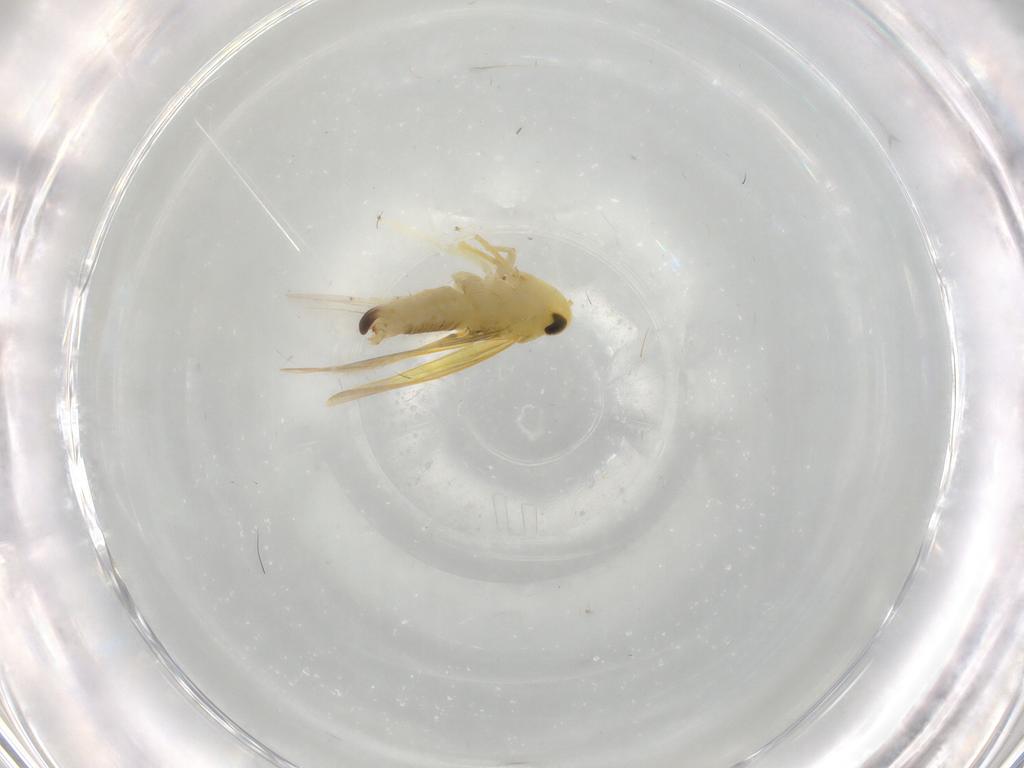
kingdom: Animalia
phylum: Arthropoda
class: Insecta
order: Hemiptera
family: Cicadellidae
